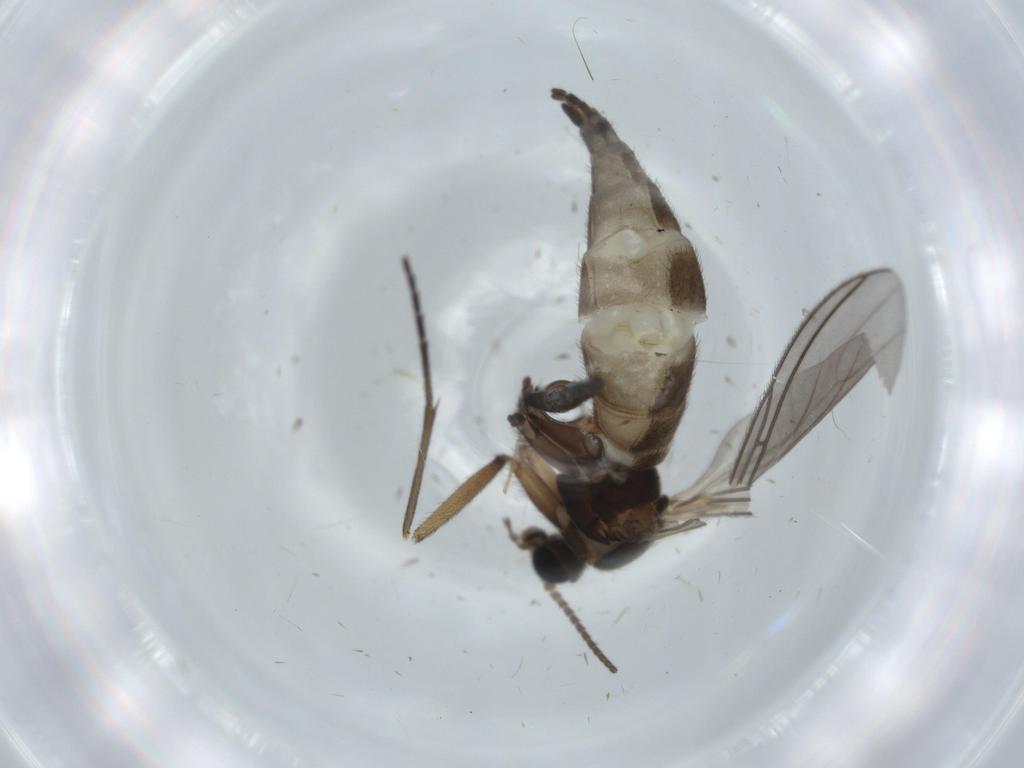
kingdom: Animalia
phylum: Arthropoda
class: Insecta
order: Diptera
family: Sciaridae
